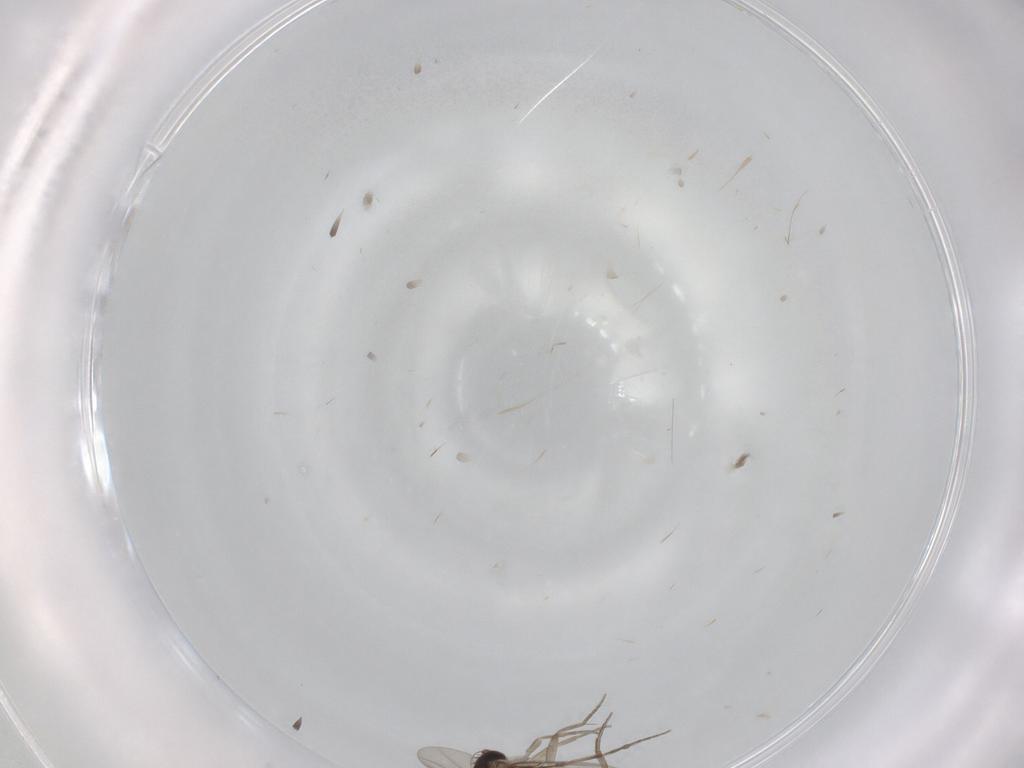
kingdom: Animalia
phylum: Arthropoda
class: Insecta
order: Diptera
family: Phoridae
